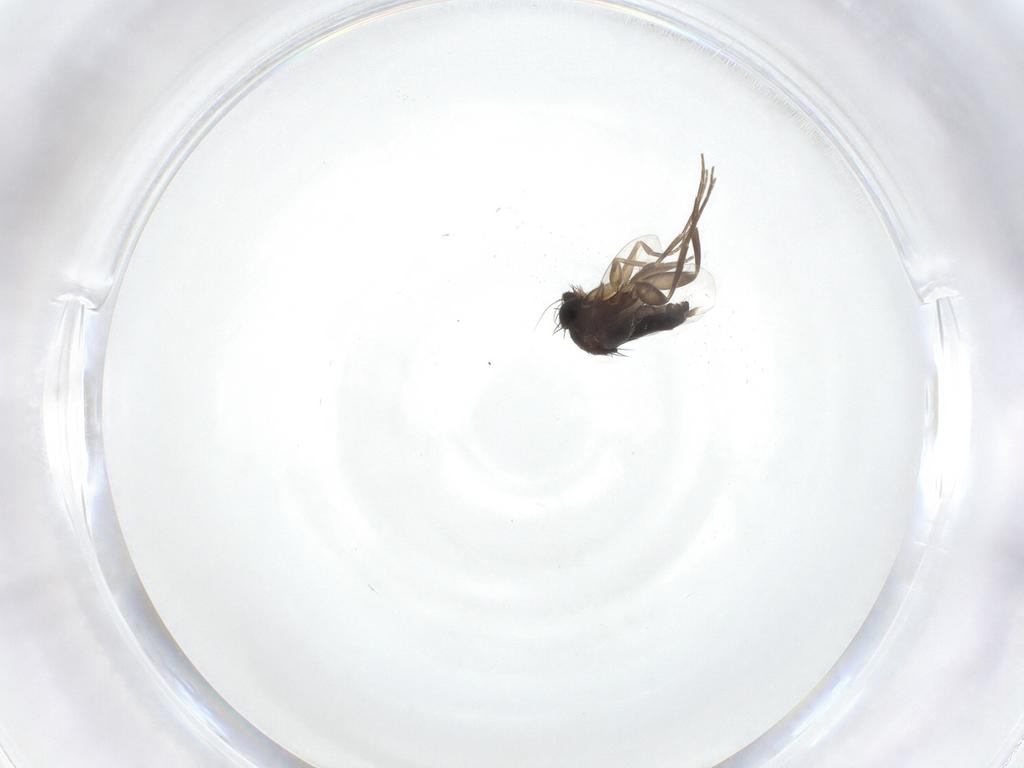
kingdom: Animalia
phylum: Arthropoda
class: Insecta
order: Diptera
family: Phoridae
